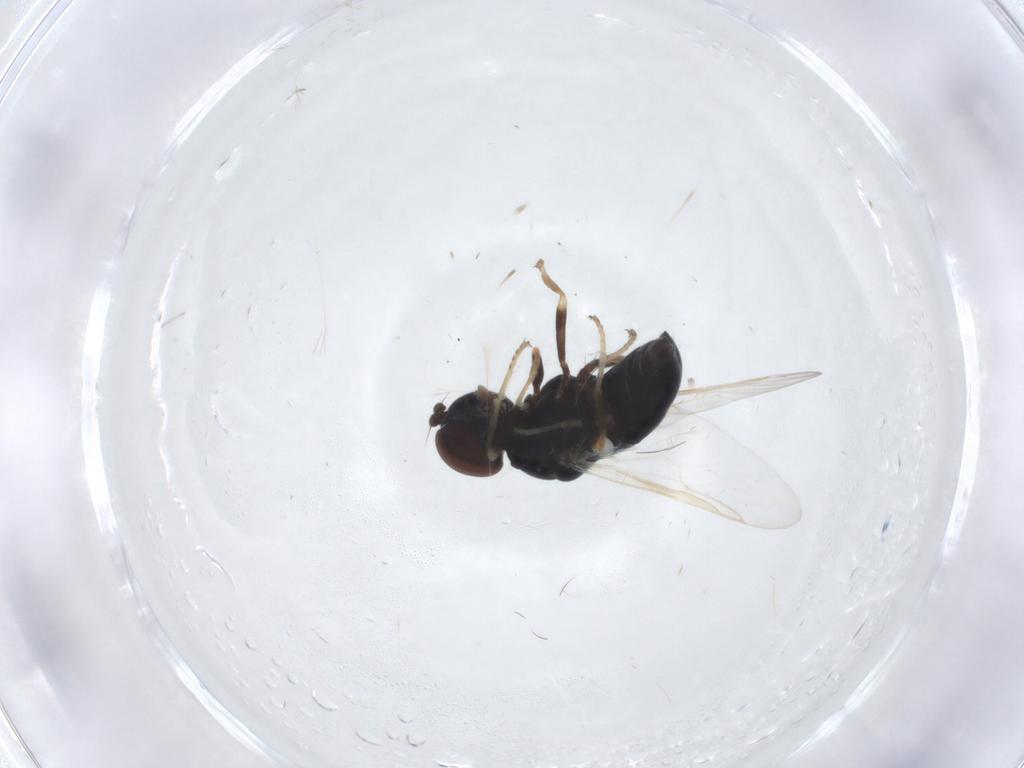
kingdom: Animalia
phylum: Arthropoda
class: Insecta
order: Diptera
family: Stratiomyidae
